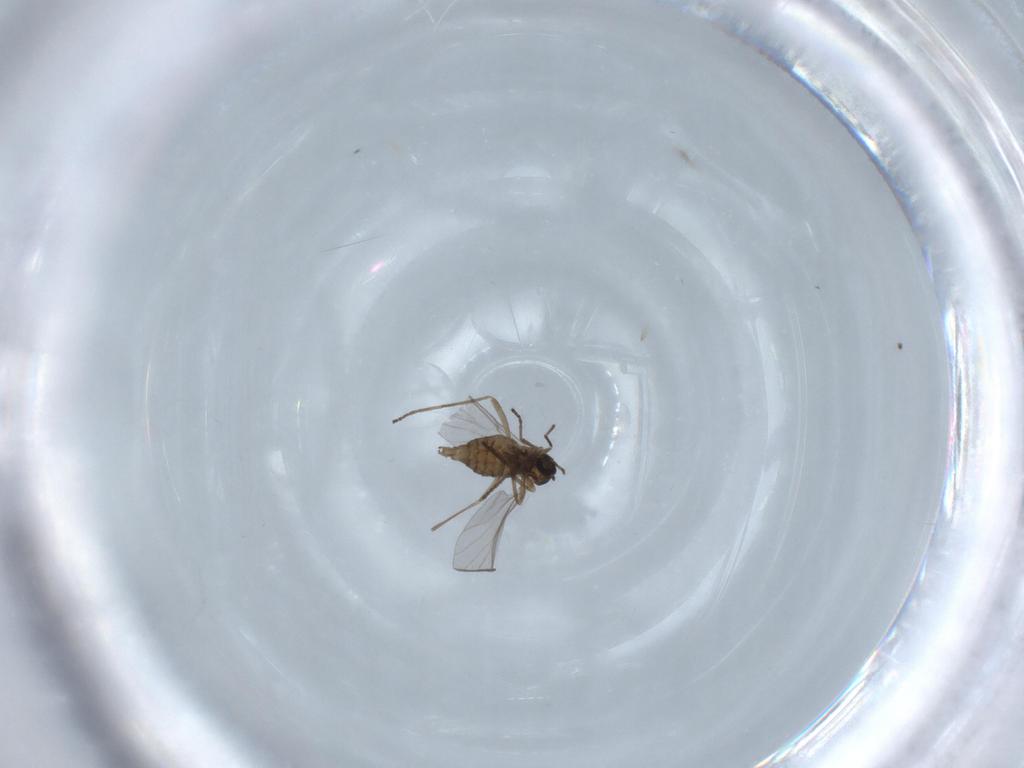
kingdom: Animalia
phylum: Arthropoda
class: Insecta
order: Diptera
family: Cecidomyiidae
